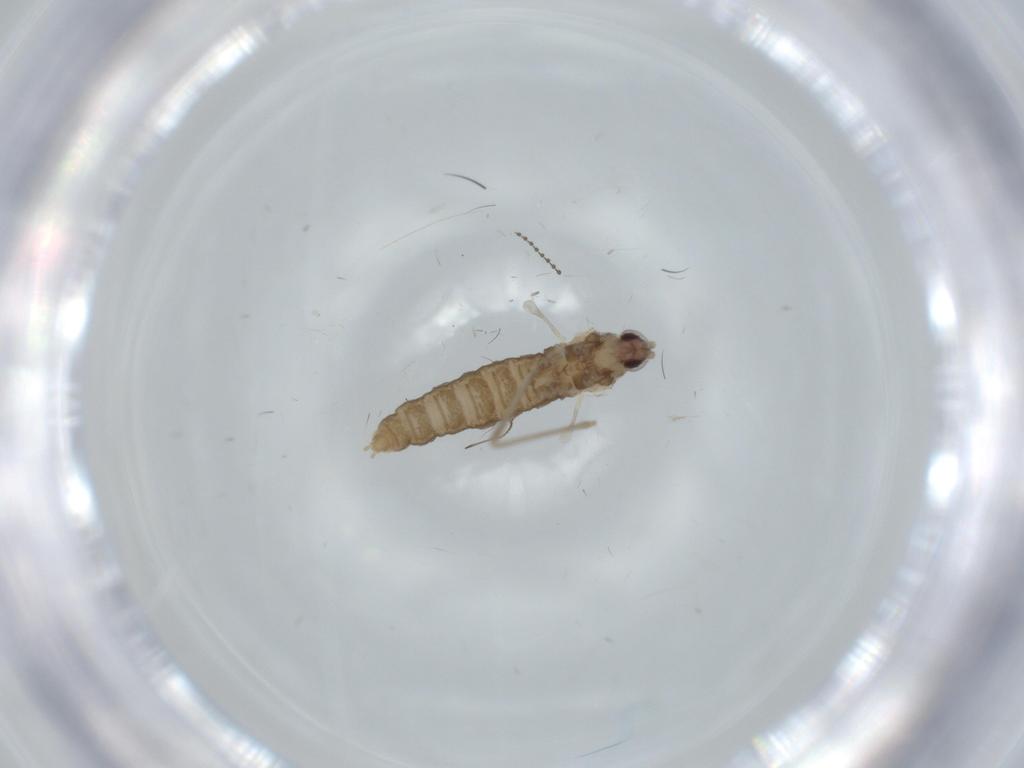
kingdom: Animalia
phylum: Arthropoda
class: Insecta
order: Diptera
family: Cecidomyiidae
